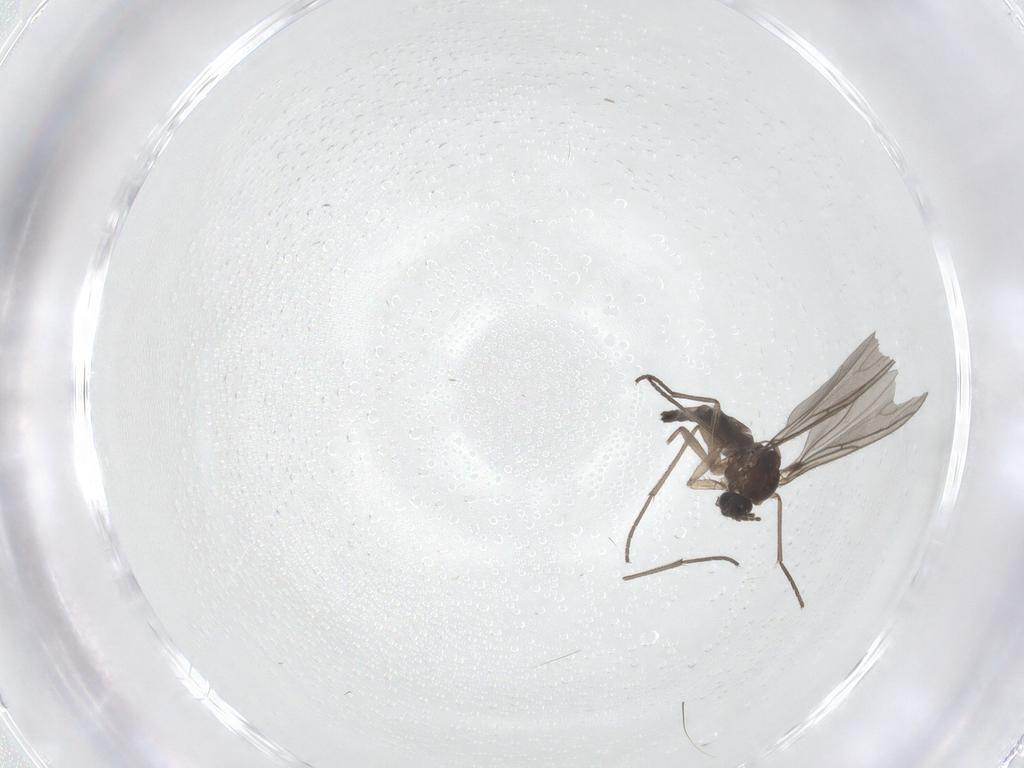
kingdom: Animalia
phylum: Arthropoda
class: Insecta
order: Diptera
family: Sciaridae
